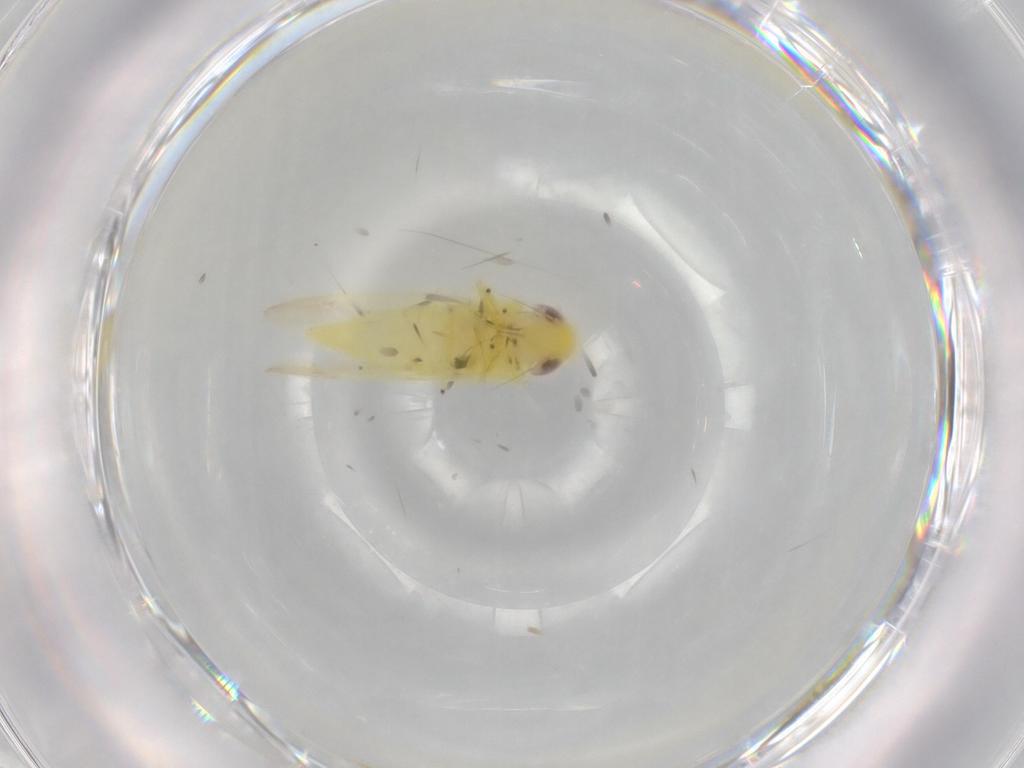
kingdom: Animalia
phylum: Arthropoda
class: Insecta
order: Hemiptera
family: Cicadellidae
